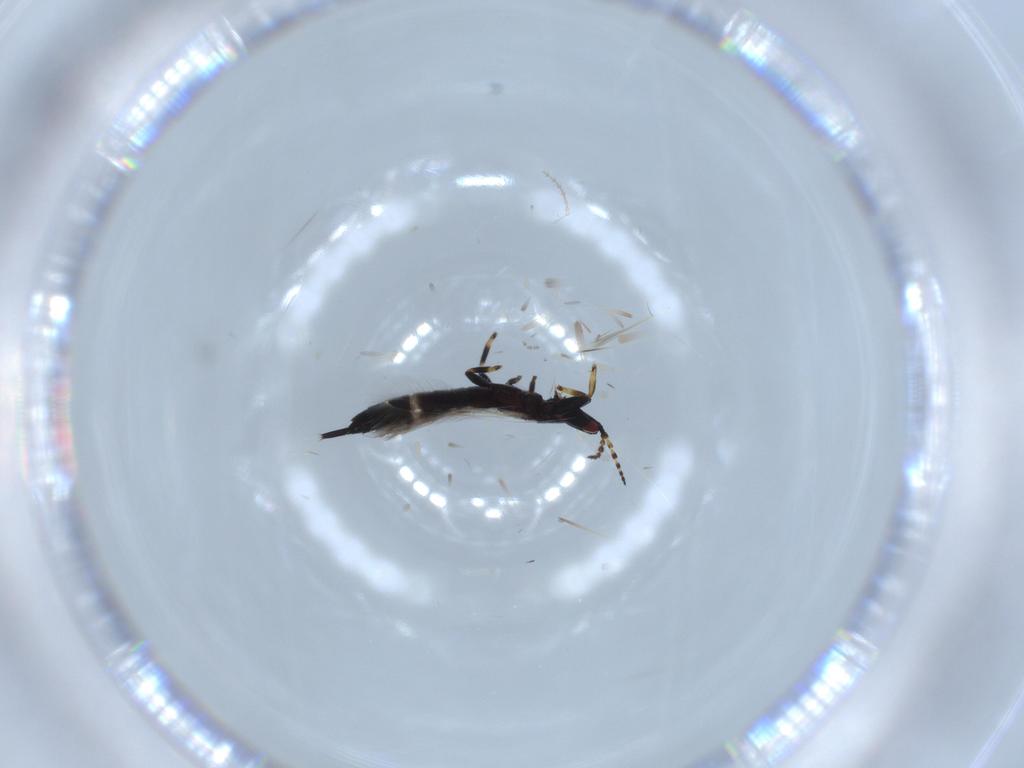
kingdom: Animalia
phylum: Arthropoda
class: Insecta
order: Thysanoptera
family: Phlaeothripidae
